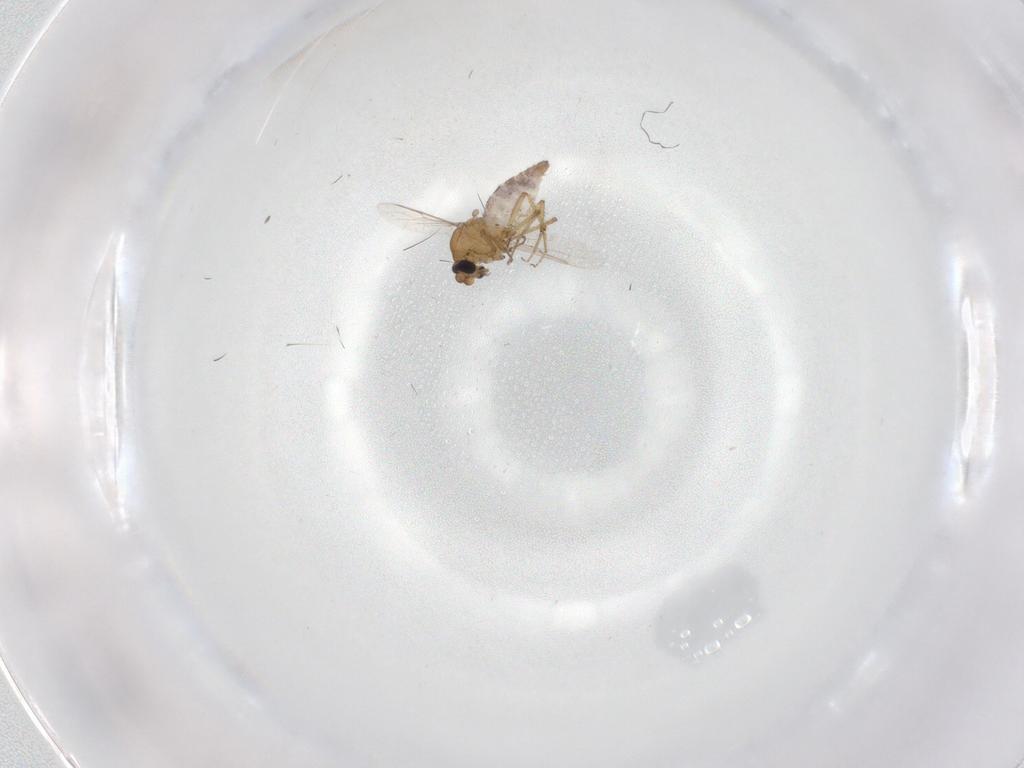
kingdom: Animalia
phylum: Arthropoda
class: Insecta
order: Diptera
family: Ceratopogonidae
